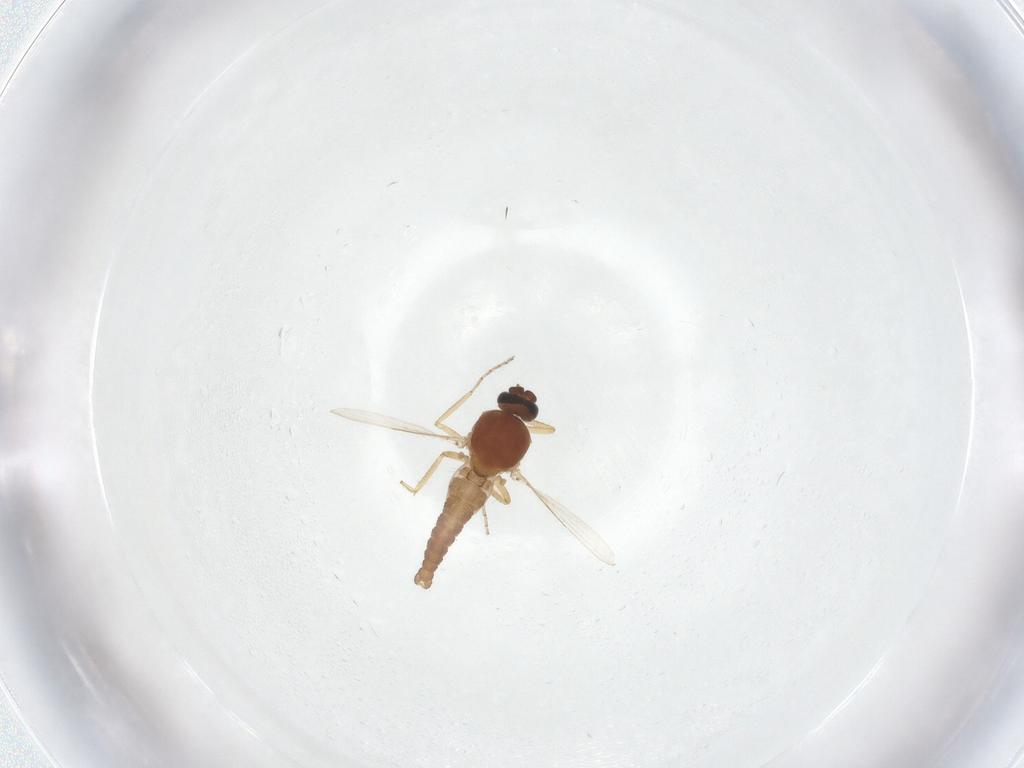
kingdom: Animalia
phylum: Arthropoda
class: Insecta
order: Diptera
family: Ceratopogonidae
